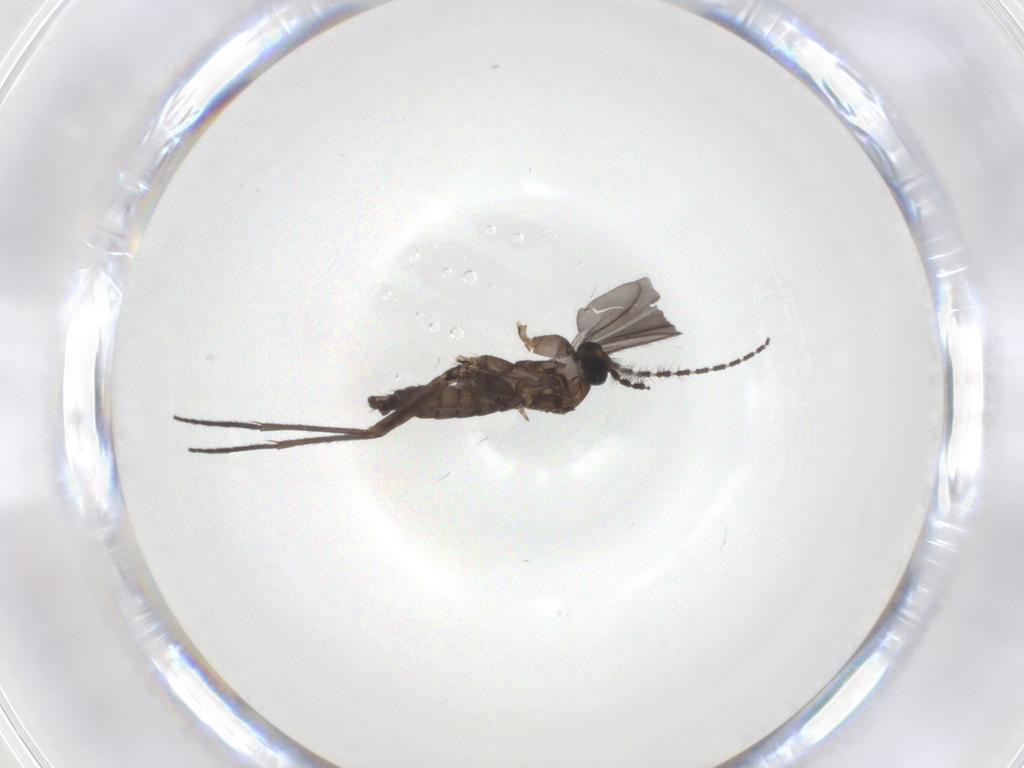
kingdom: Animalia
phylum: Arthropoda
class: Insecta
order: Diptera
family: Sciaridae
